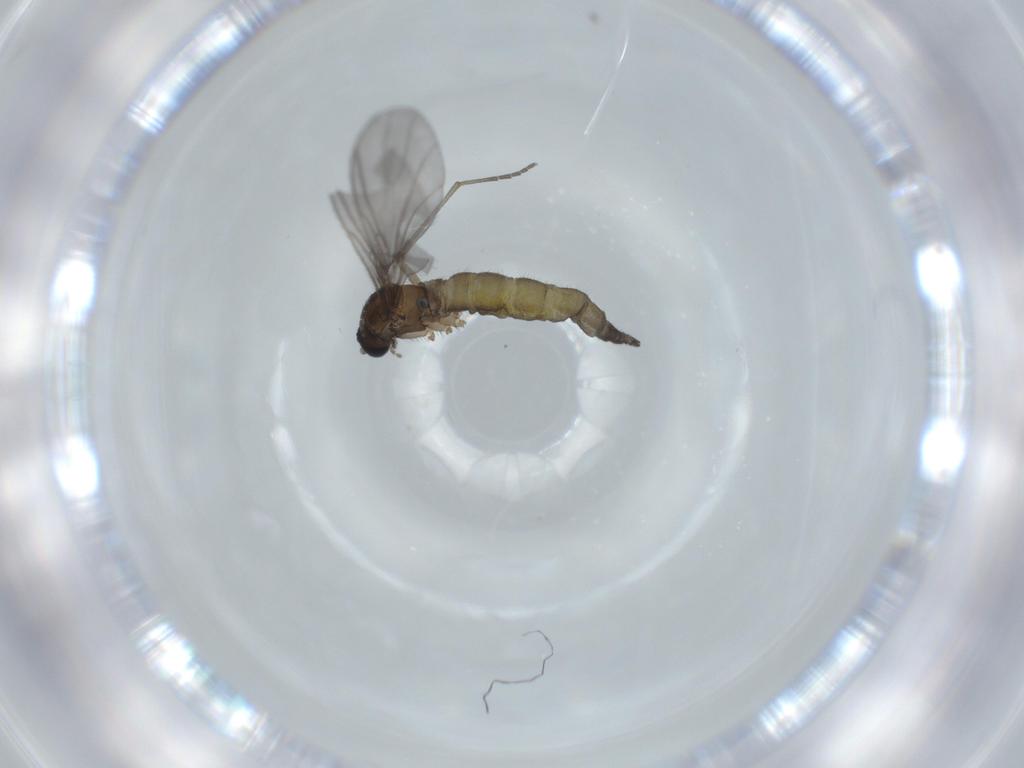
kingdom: Animalia
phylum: Arthropoda
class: Insecta
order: Diptera
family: Sciaridae
